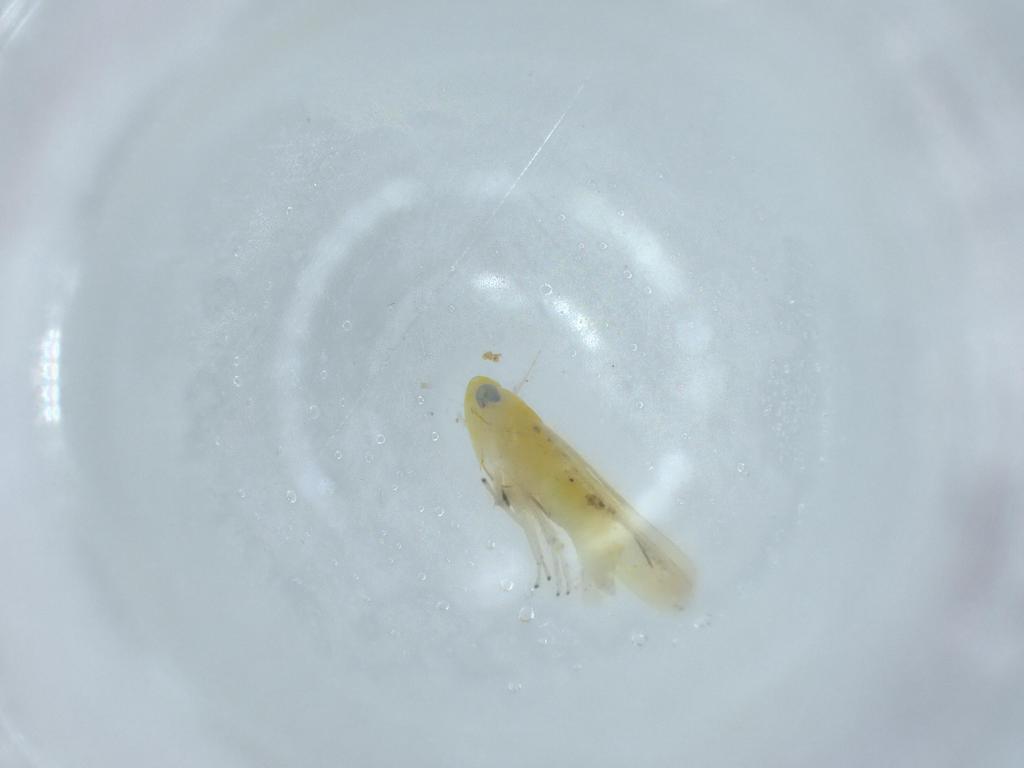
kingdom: Animalia
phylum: Arthropoda
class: Insecta
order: Hemiptera
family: Cicadellidae
